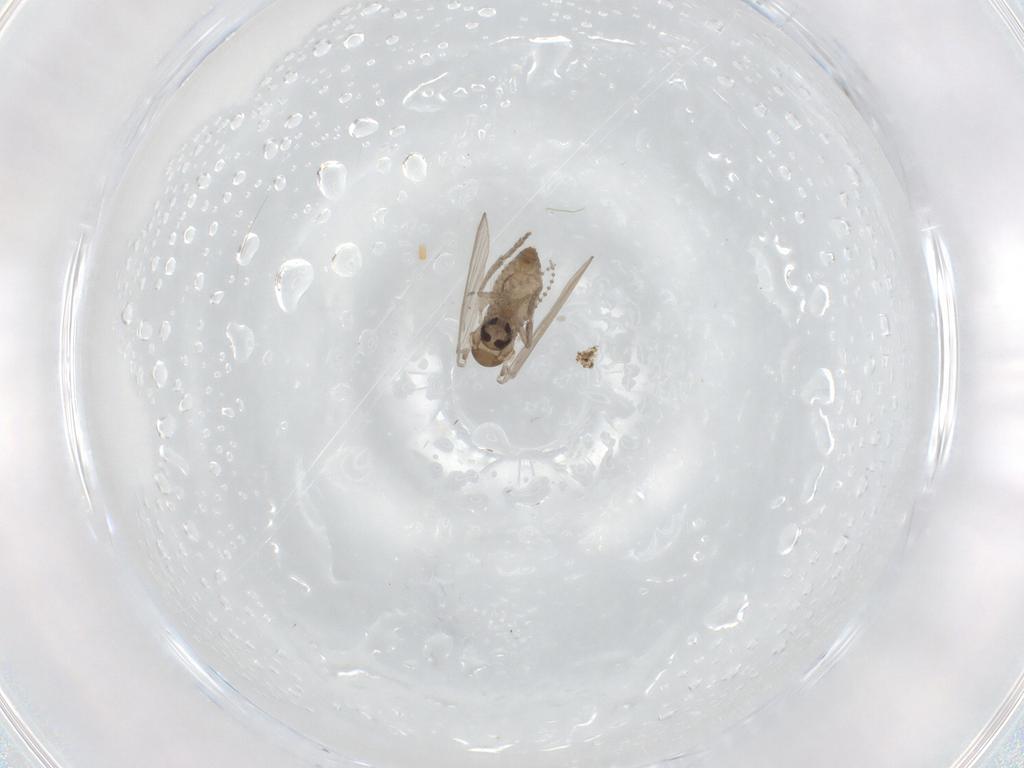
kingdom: Animalia
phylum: Arthropoda
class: Insecta
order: Diptera
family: Psychodidae
